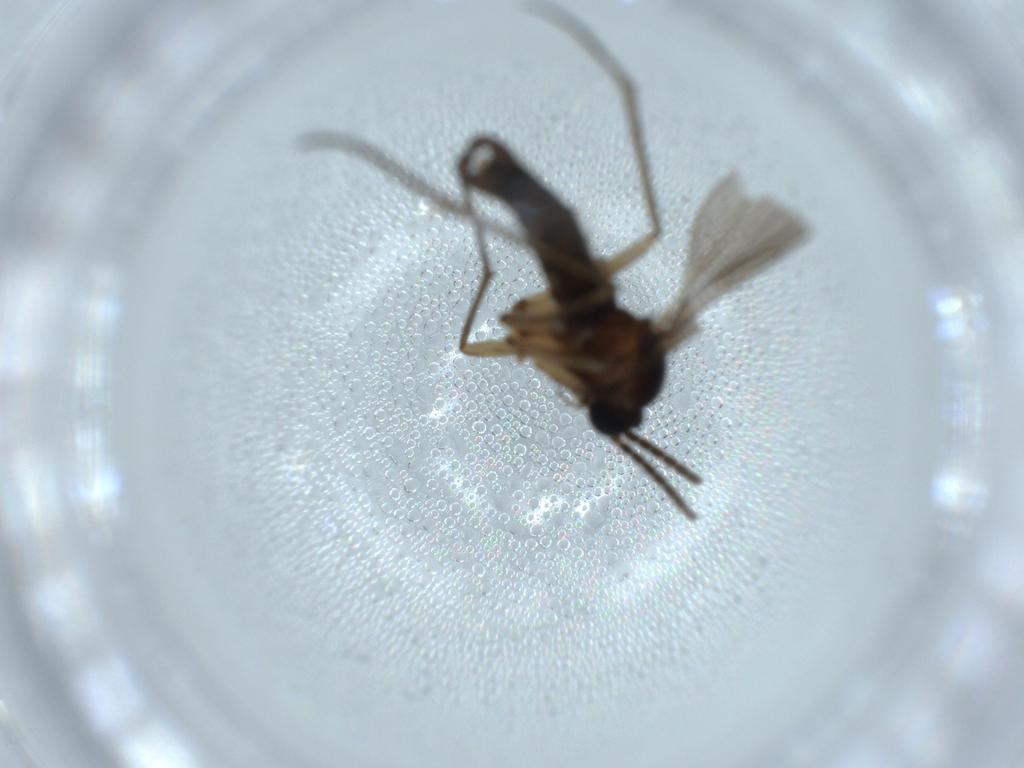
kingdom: Animalia
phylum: Arthropoda
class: Insecta
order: Diptera
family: Sciaridae
